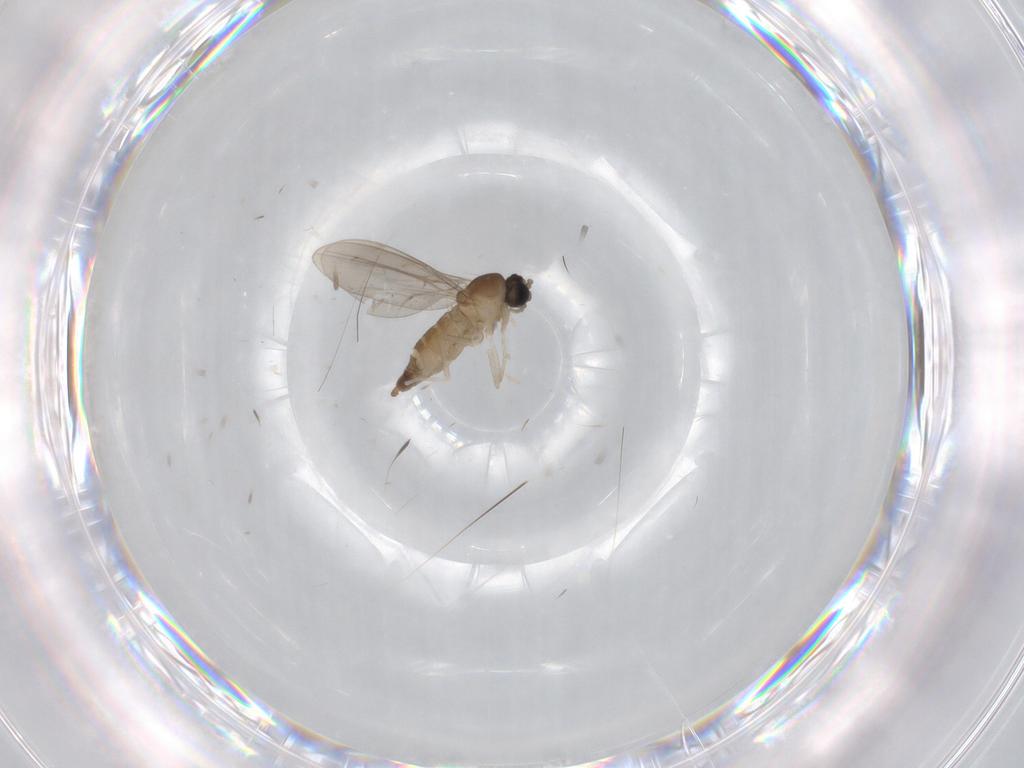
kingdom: Animalia
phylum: Arthropoda
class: Insecta
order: Diptera
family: Cecidomyiidae
